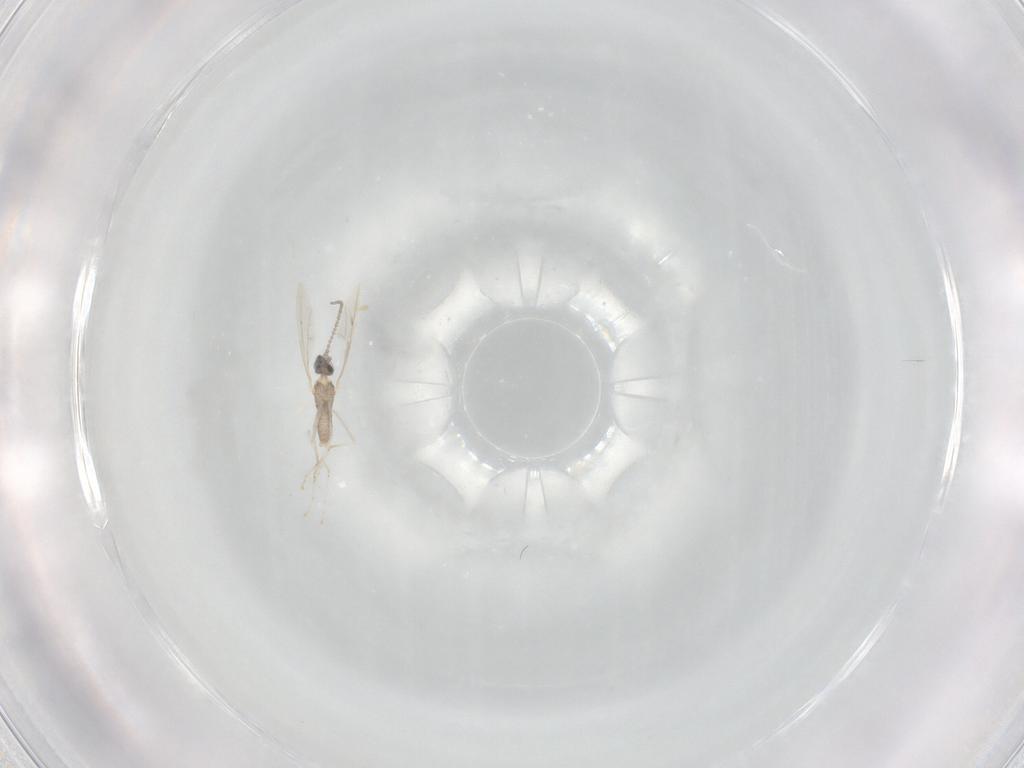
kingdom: Animalia
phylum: Arthropoda
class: Insecta
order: Diptera
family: Cecidomyiidae
